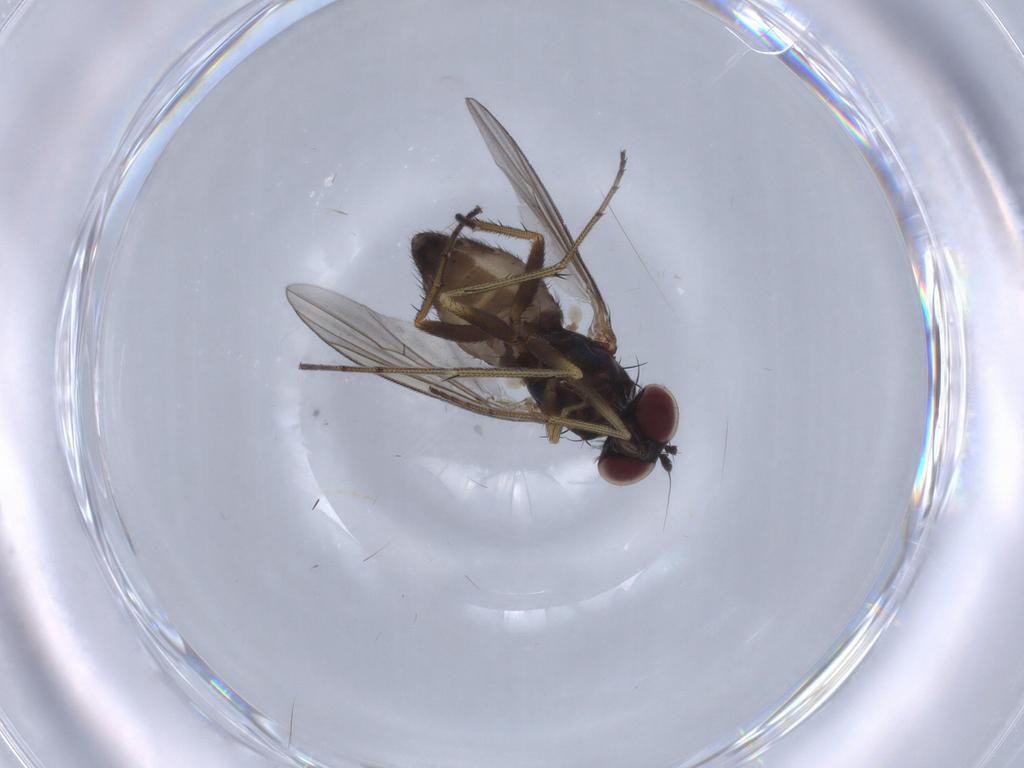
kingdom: Animalia
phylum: Arthropoda
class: Insecta
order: Diptera
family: Dolichopodidae
